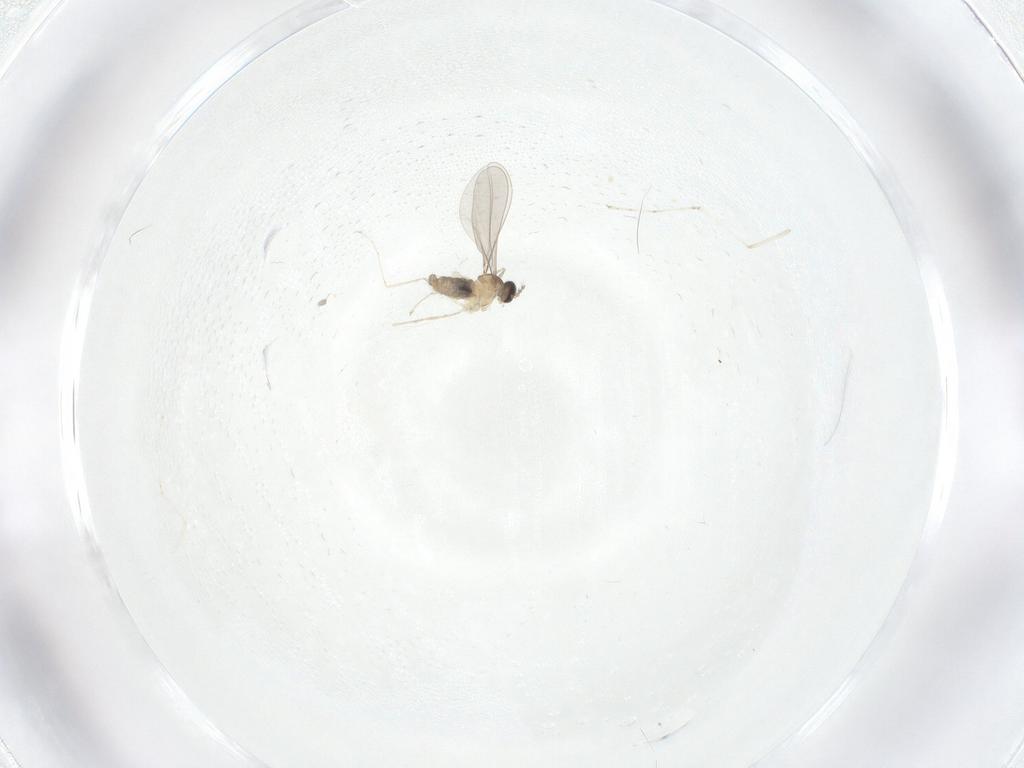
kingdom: Animalia
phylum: Arthropoda
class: Insecta
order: Diptera
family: Cecidomyiidae
